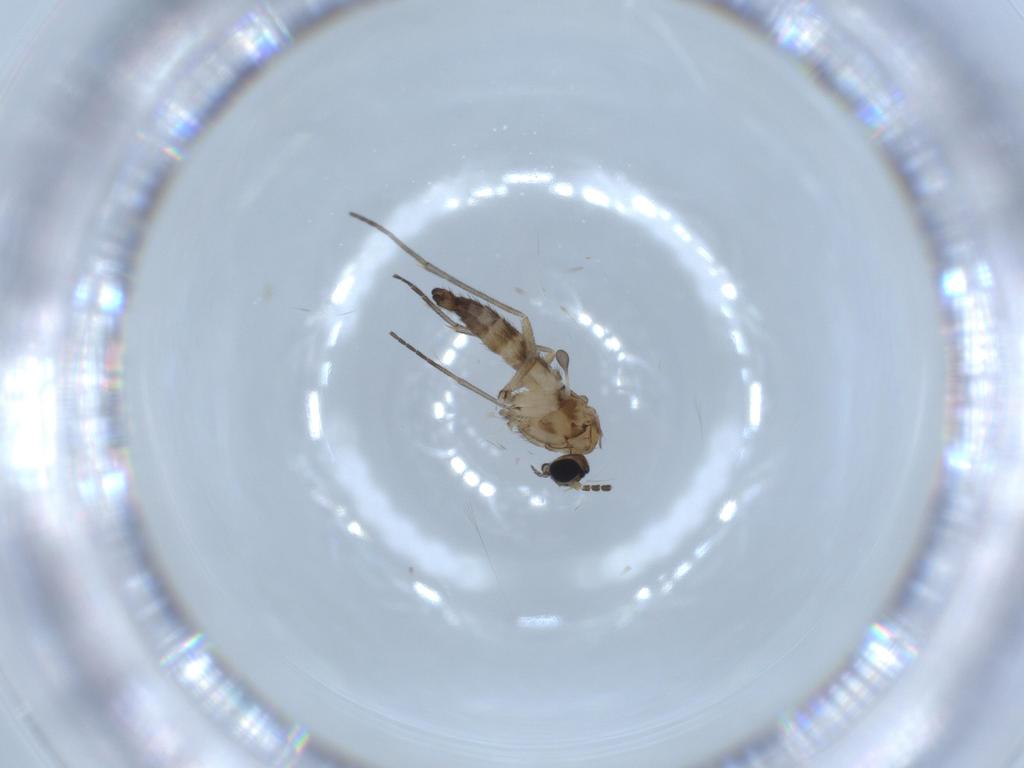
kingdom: Animalia
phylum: Arthropoda
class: Insecta
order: Diptera
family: Sciaridae
